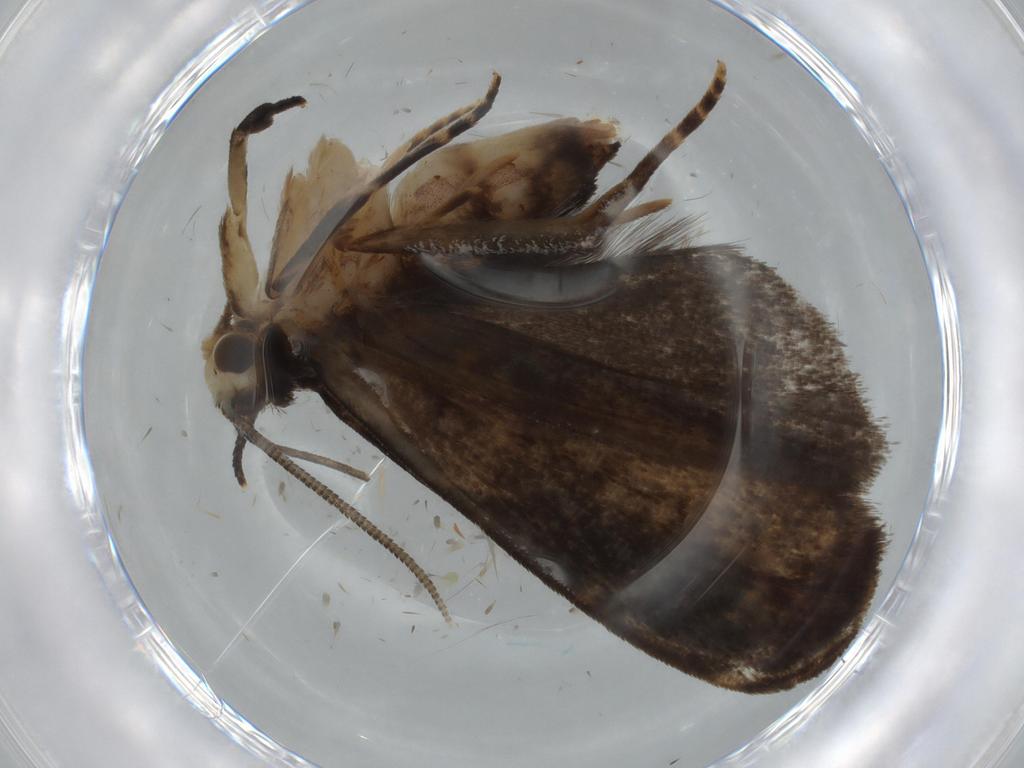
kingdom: Animalia
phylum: Arthropoda
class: Insecta
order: Lepidoptera
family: Dryadaulidae
